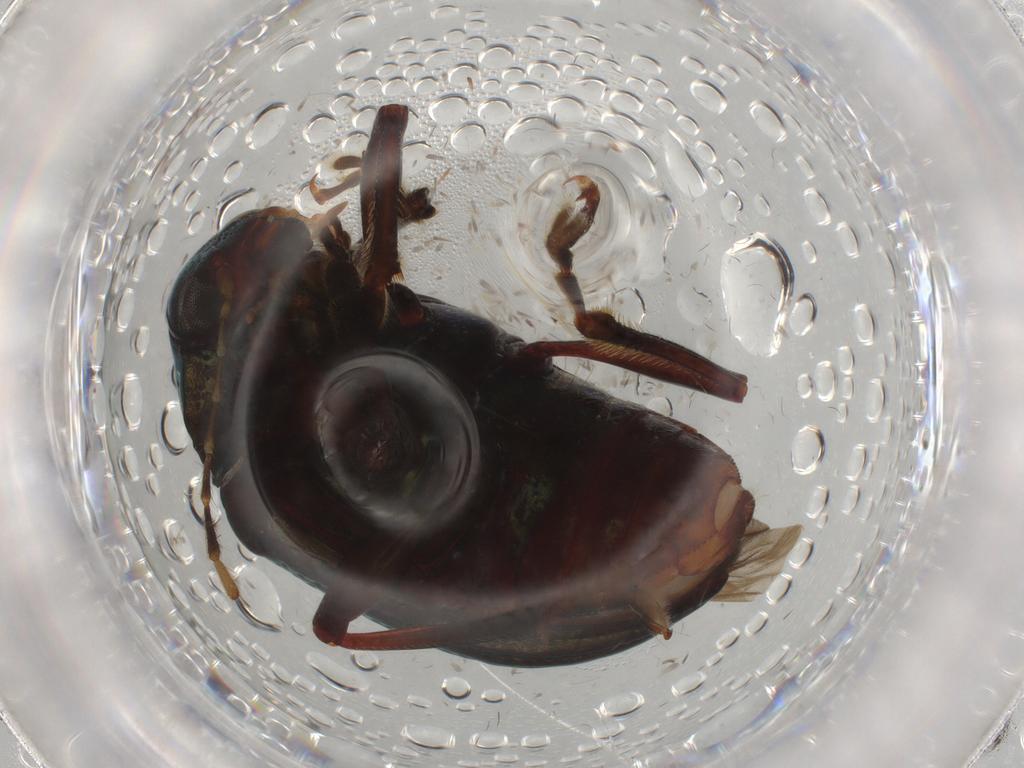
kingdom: Animalia
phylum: Arthropoda
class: Insecta
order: Coleoptera
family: Chrysomelidae
